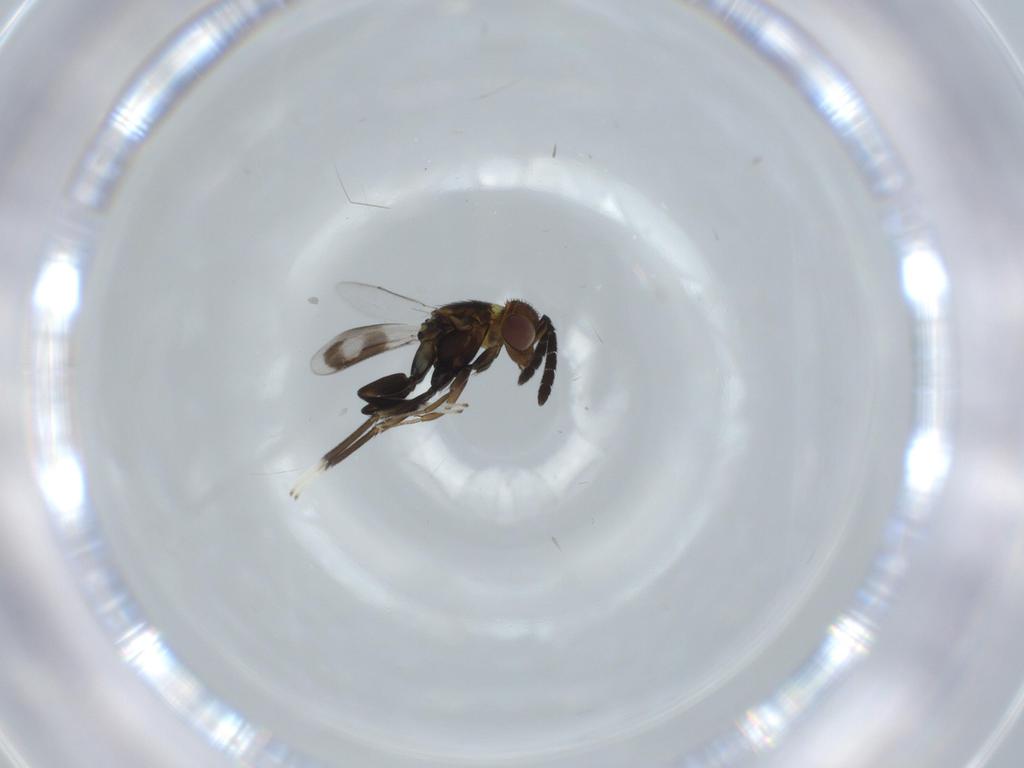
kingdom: Animalia
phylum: Arthropoda
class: Insecta
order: Hymenoptera
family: Aphelinidae
